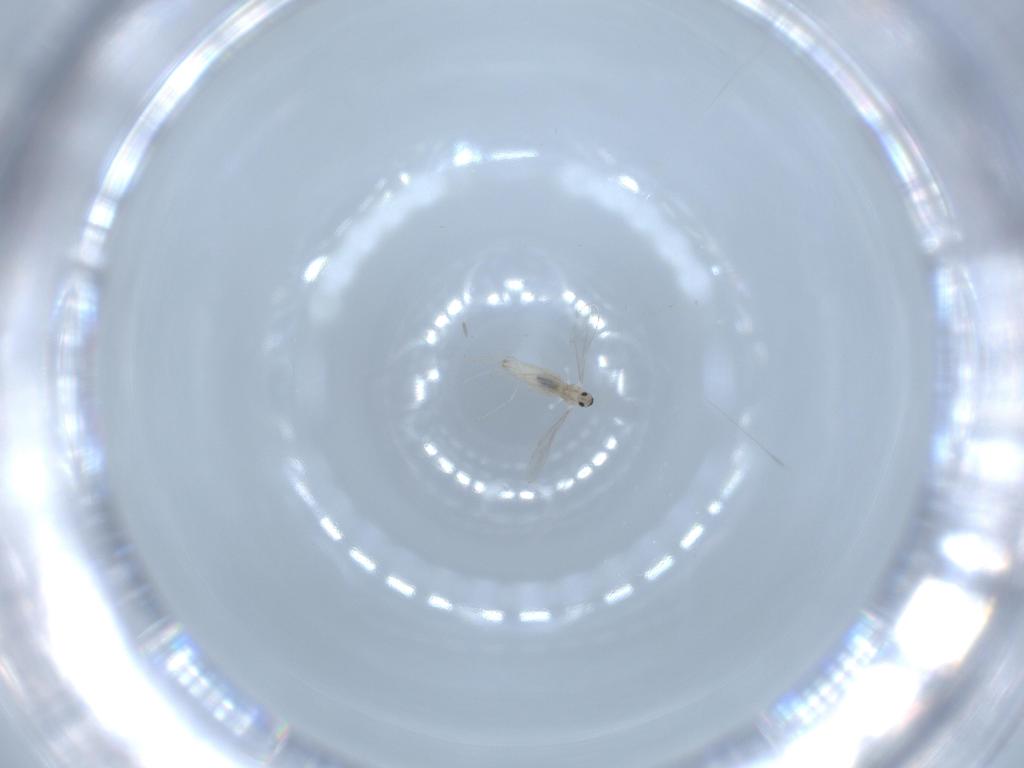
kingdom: Animalia
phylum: Arthropoda
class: Insecta
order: Diptera
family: Cecidomyiidae
